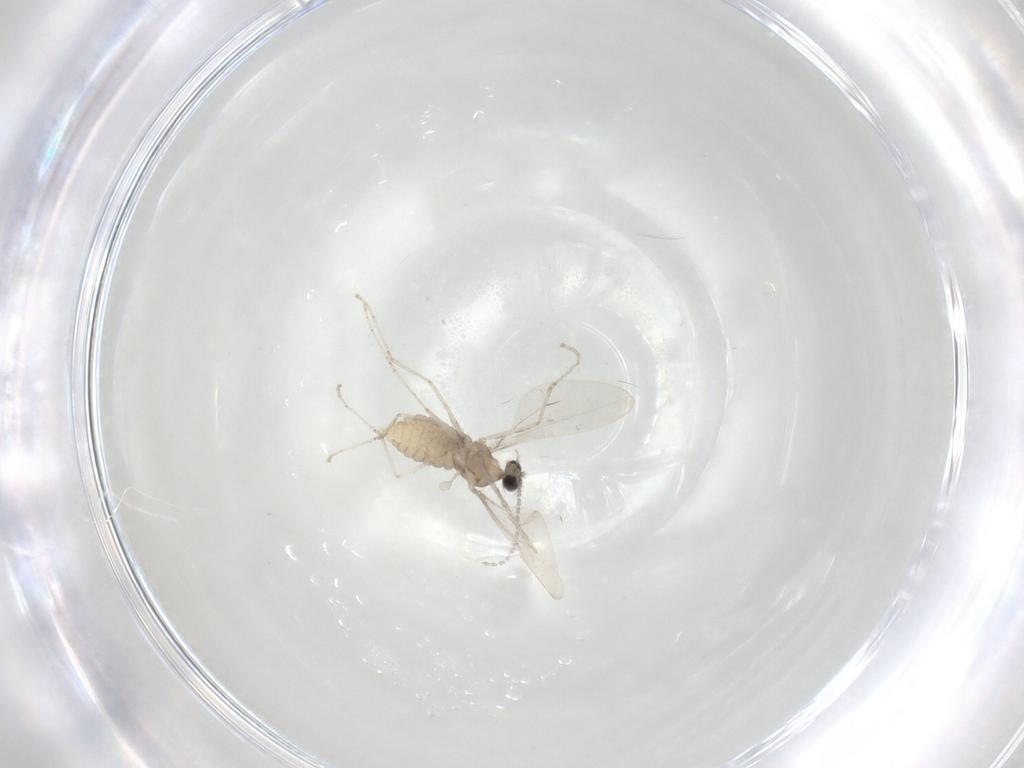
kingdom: Animalia
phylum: Arthropoda
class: Insecta
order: Diptera
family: Cecidomyiidae
